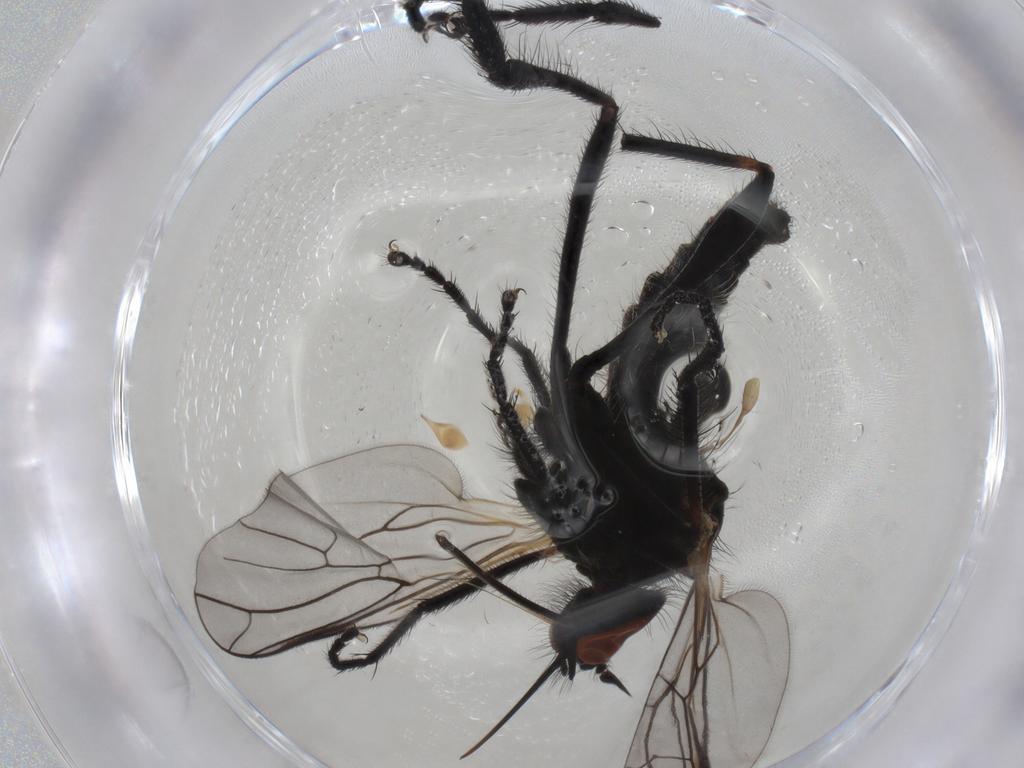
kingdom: Animalia
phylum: Arthropoda
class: Insecta
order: Diptera
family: Empididae
